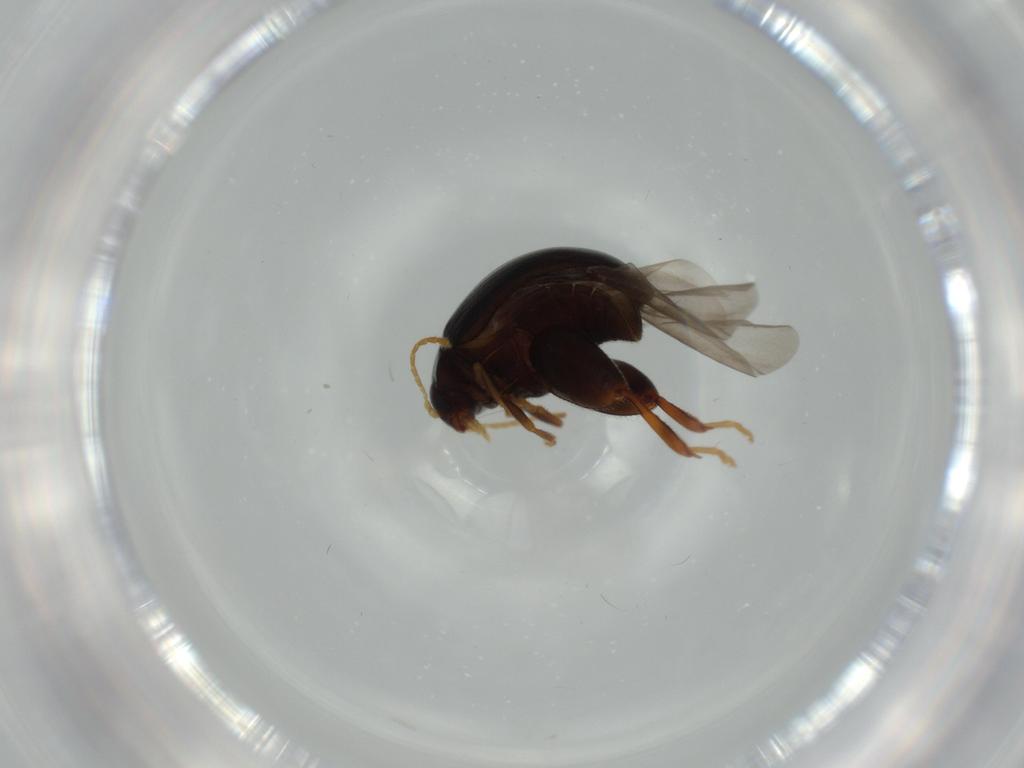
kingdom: Animalia
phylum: Arthropoda
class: Insecta
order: Coleoptera
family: Chrysomelidae
